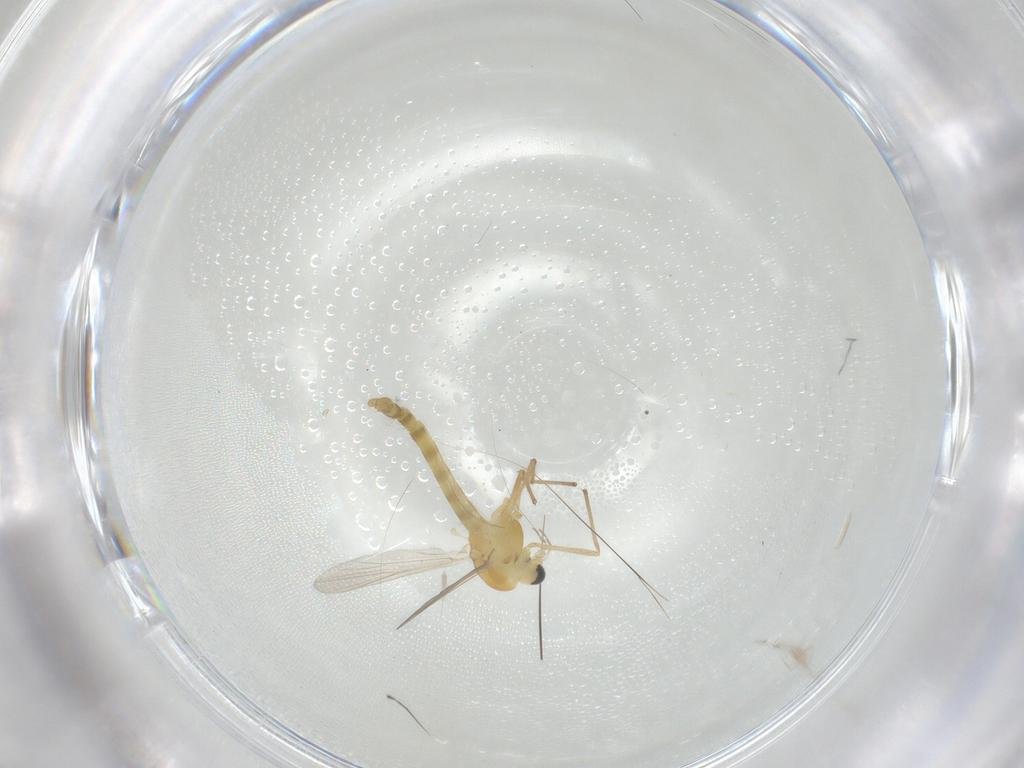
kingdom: Animalia
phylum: Arthropoda
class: Insecta
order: Diptera
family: Chironomidae
